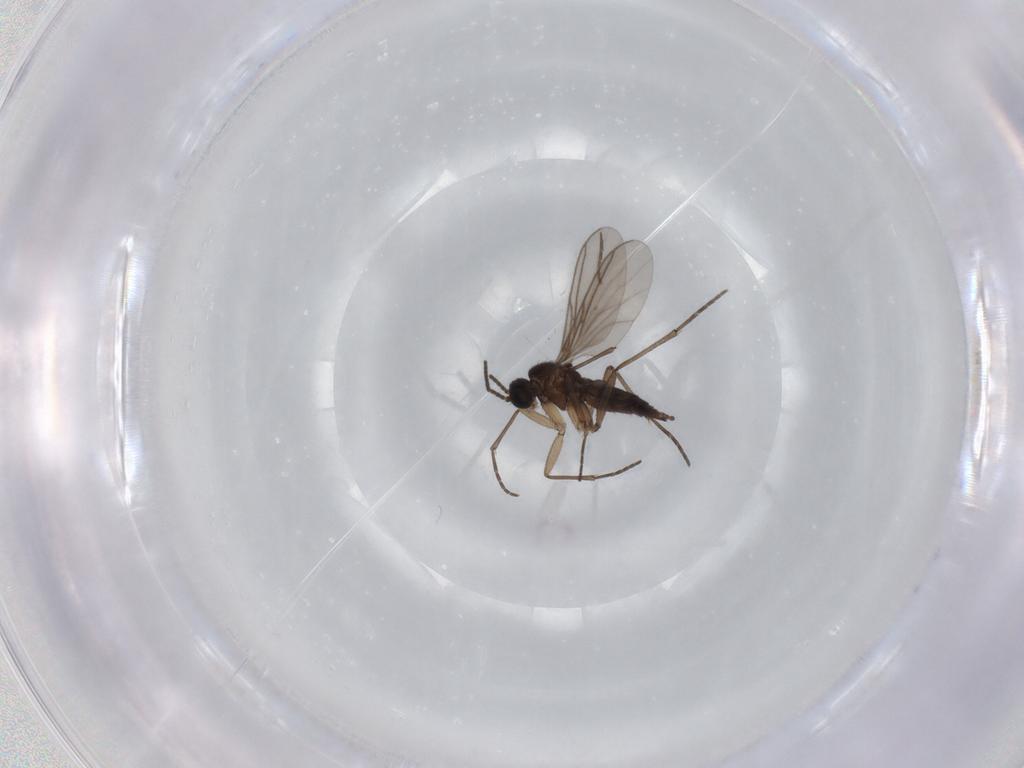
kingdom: Animalia
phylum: Arthropoda
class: Insecta
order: Diptera
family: Sciaridae
